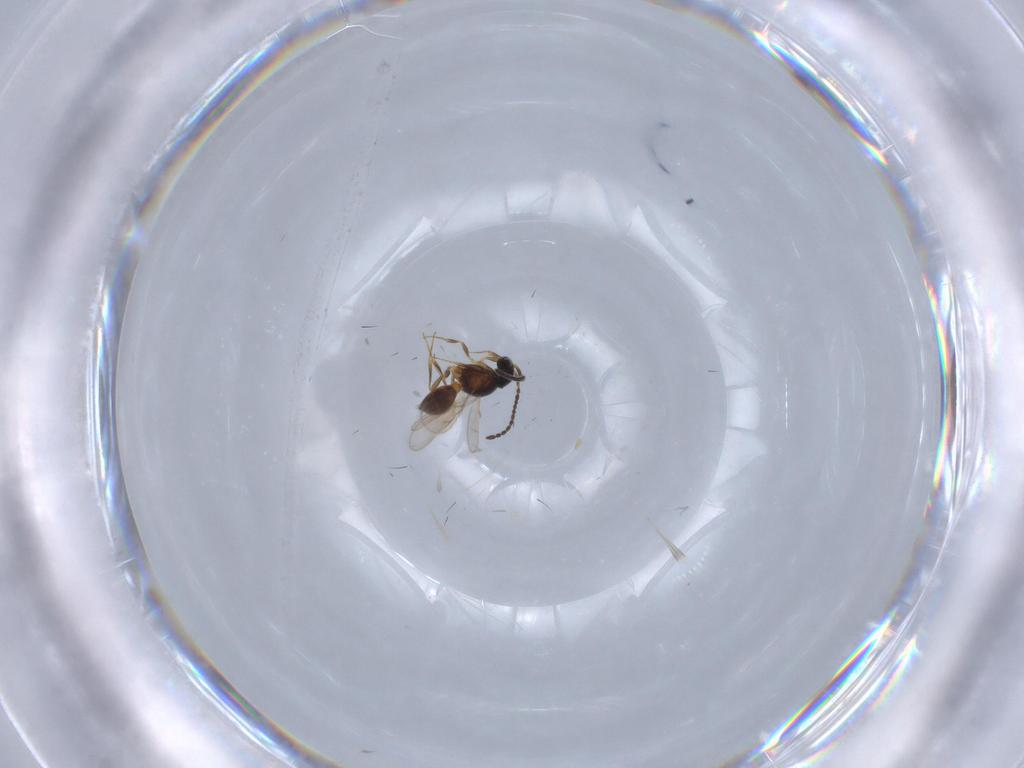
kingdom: Animalia
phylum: Arthropoda
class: Insecta
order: Hymenoptera
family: Scelionidae
